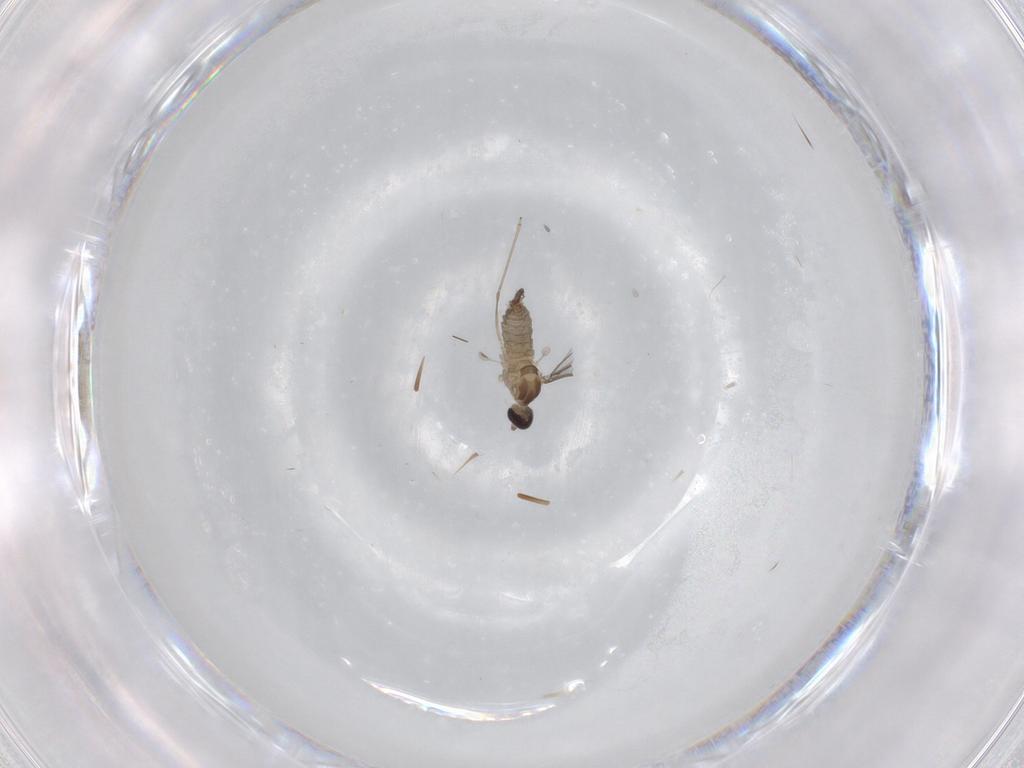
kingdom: Animalia
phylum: Arthropoda
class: Insecta
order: Diptera
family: Cecidomyiidae
